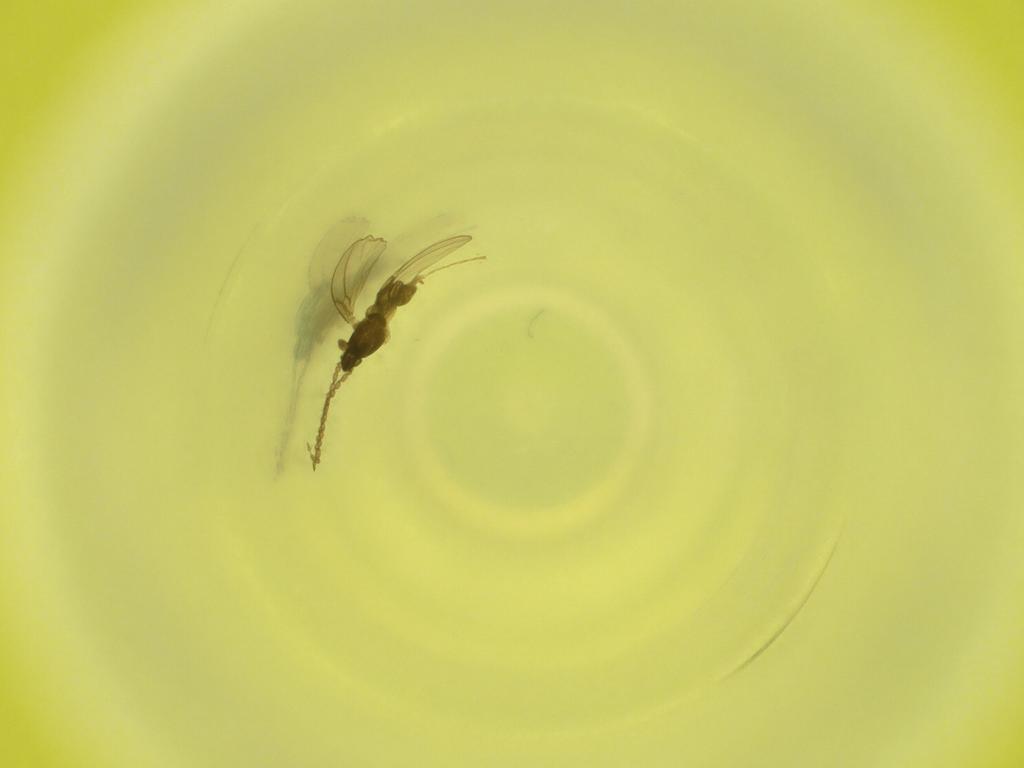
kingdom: Animalia
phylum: Arthropoda
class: Insecta
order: Diptera
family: Cecidomyiidae
